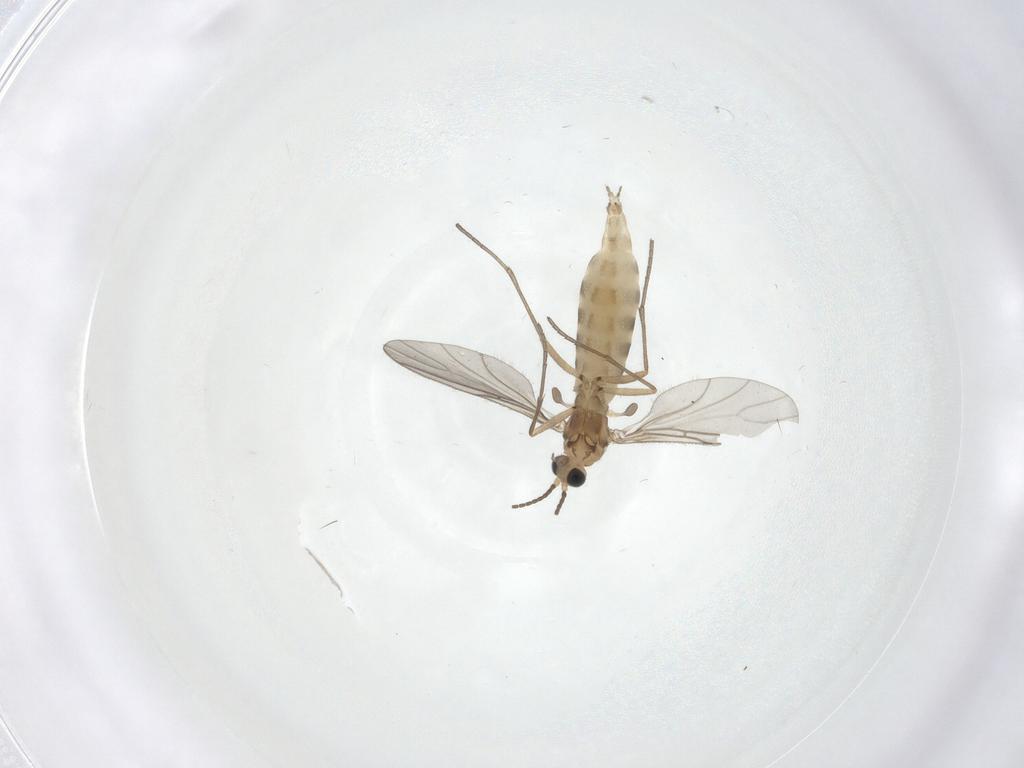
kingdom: Animalia
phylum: Arthropoda
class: Insecta
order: Diptera
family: Sciaridae
